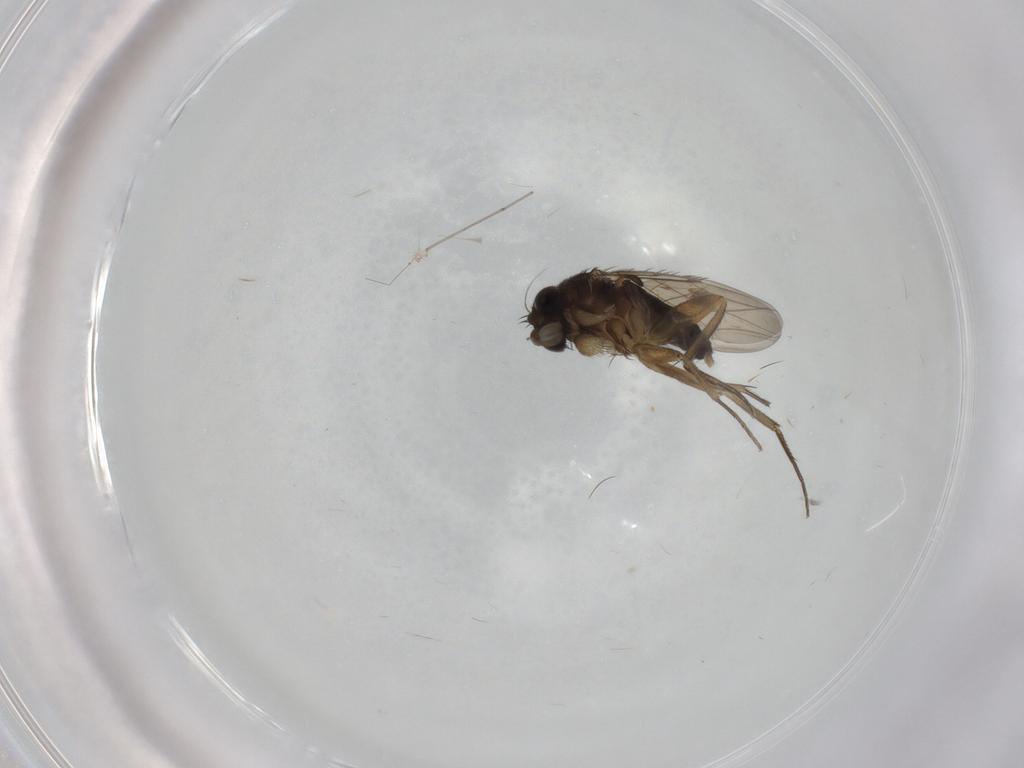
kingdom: Animalia
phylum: Arthropoda
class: Insecta
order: Diptera
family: Phoridae
